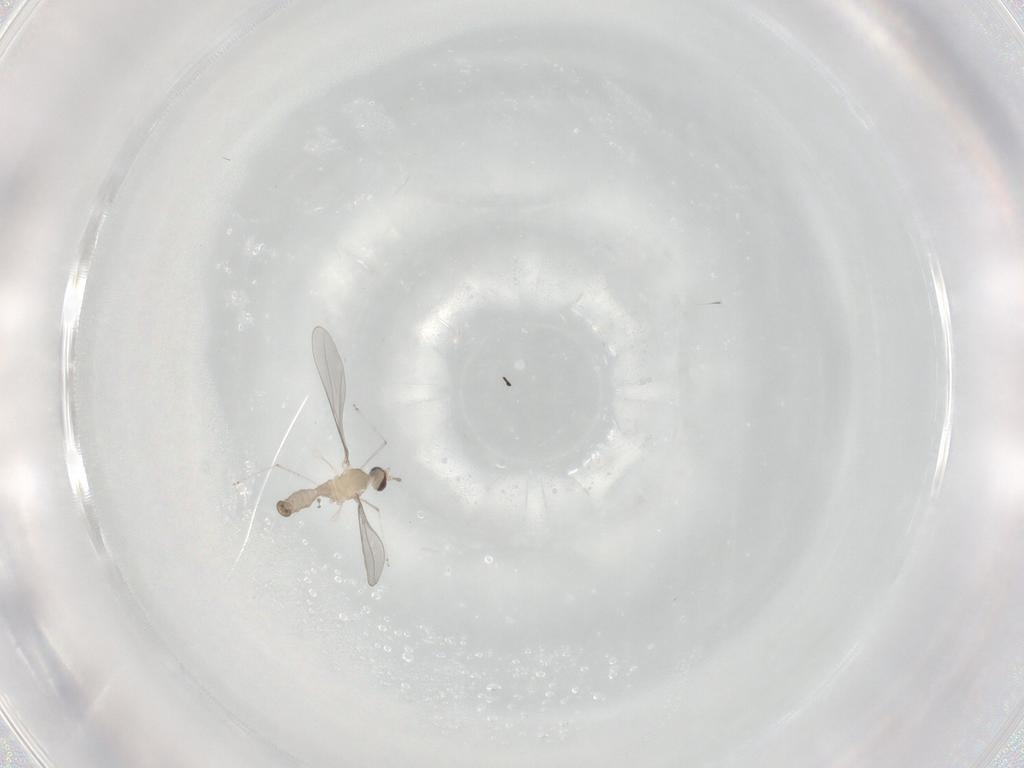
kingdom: Animalia
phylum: Arthropoda
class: Insecta
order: Diptera
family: Cecidomyiidae
